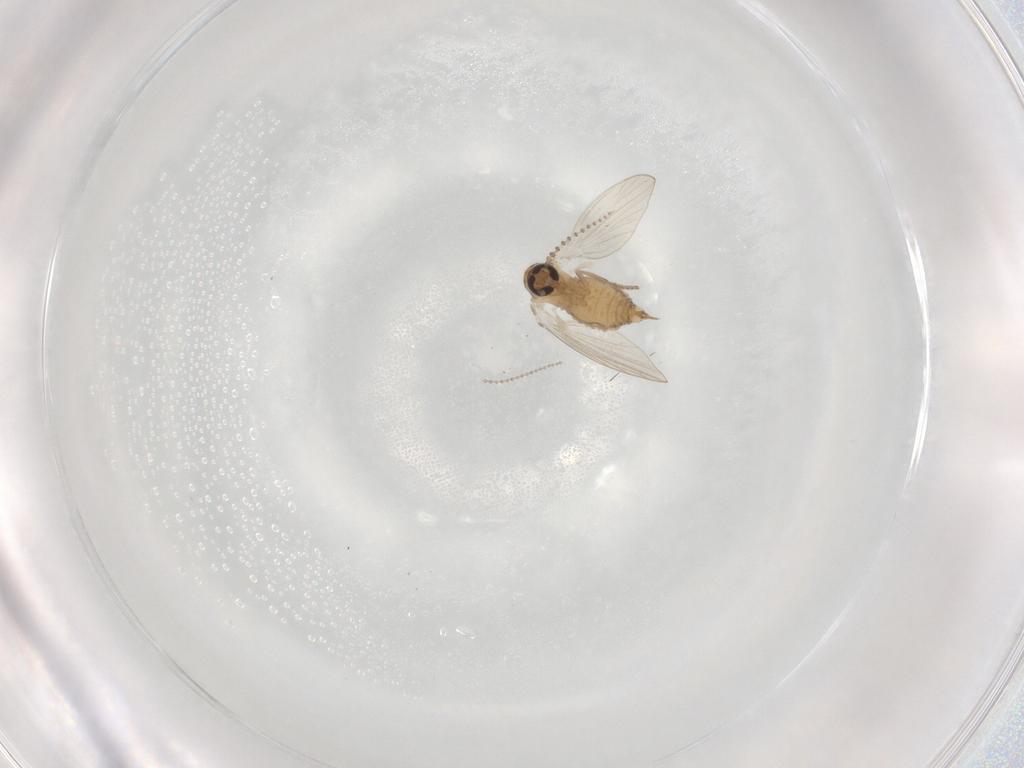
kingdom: Animalia
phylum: Arthropoda
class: Insecta
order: Diptera
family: Psychodidae
